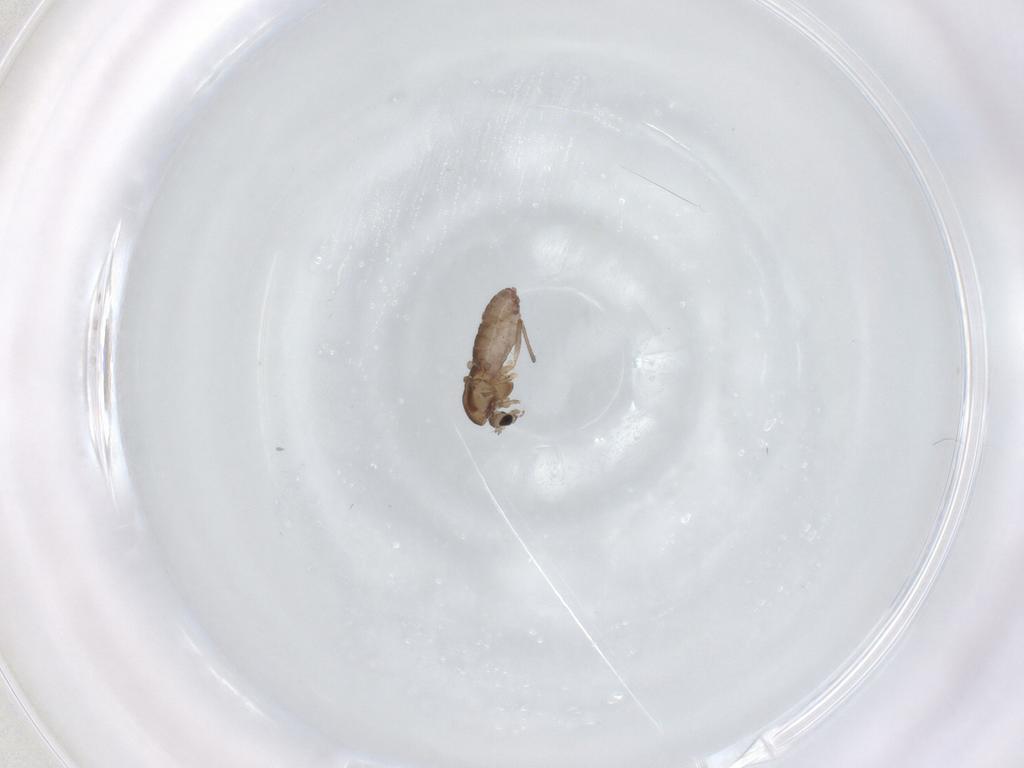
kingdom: Animalia
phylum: Arthropoda
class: Insecta
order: Diptera
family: Chironomidae
